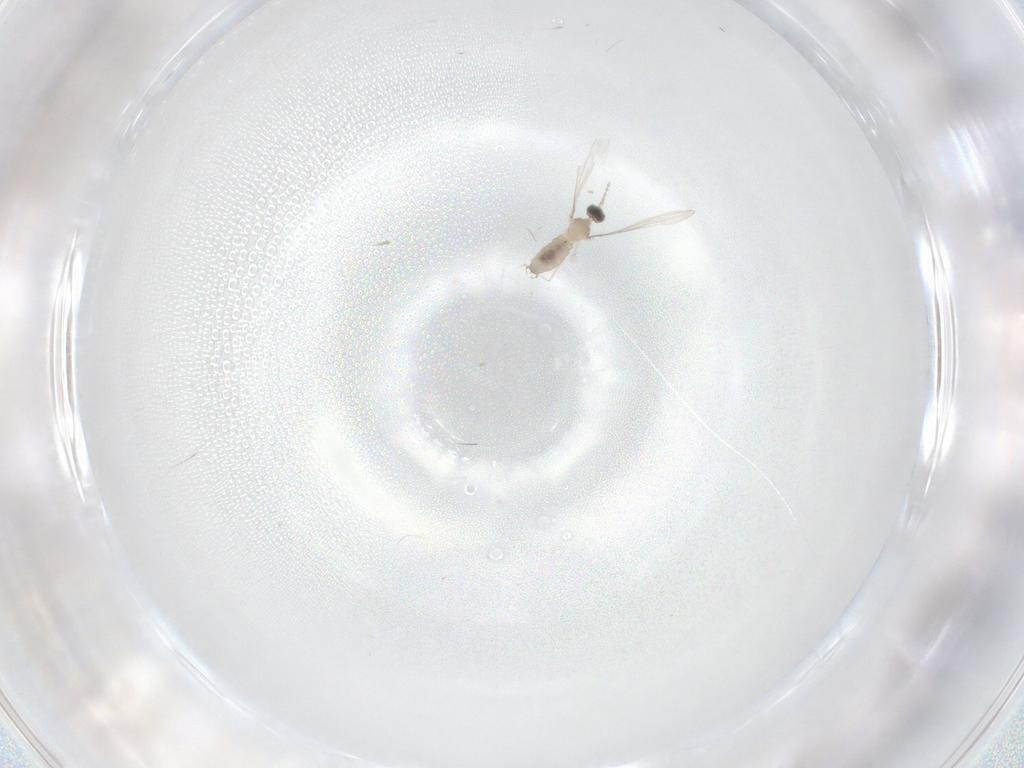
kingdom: Animalia
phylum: Arthropoda
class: Insecta
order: Diptera
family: Cecidomyiidae
